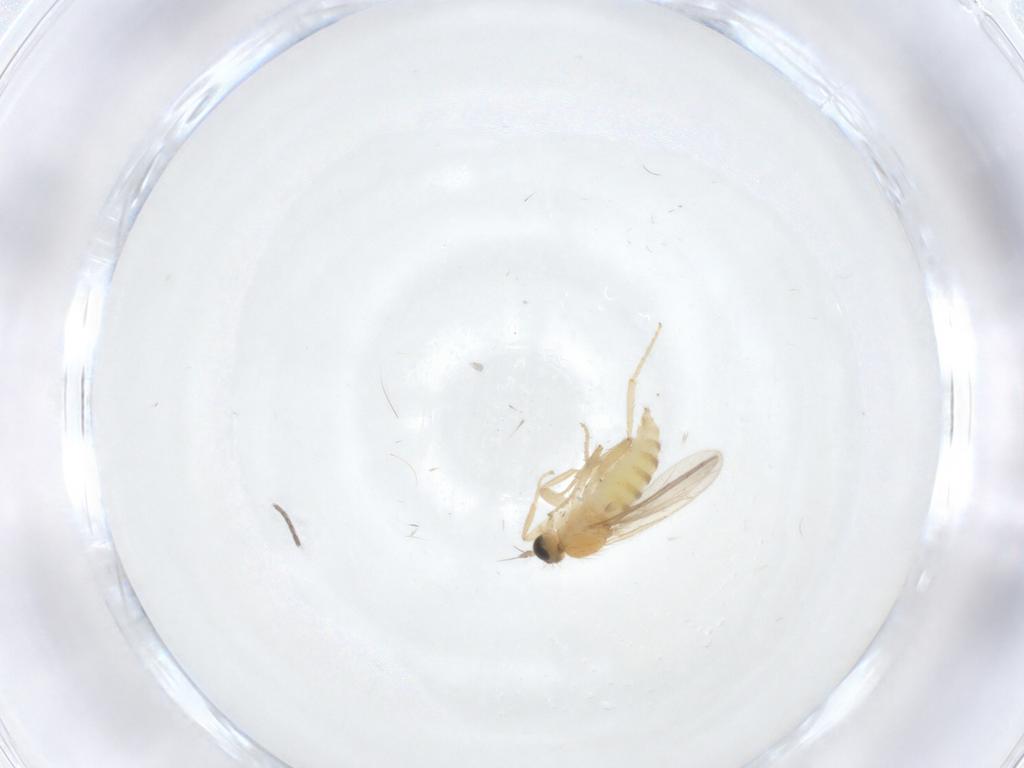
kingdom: Animalia
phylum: Arthropoda
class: Insecta
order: Diptera
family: Hybotidae
